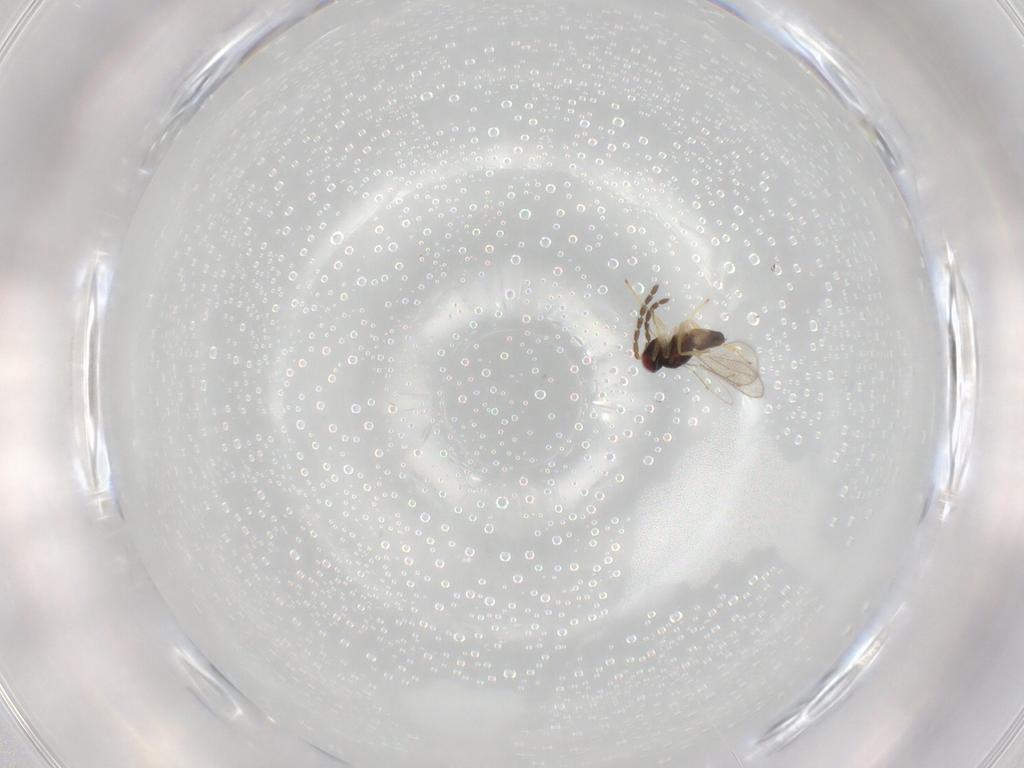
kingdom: Animalia
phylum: Arthropoda
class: Insecta
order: Hymenoptera
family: Eulophidae
